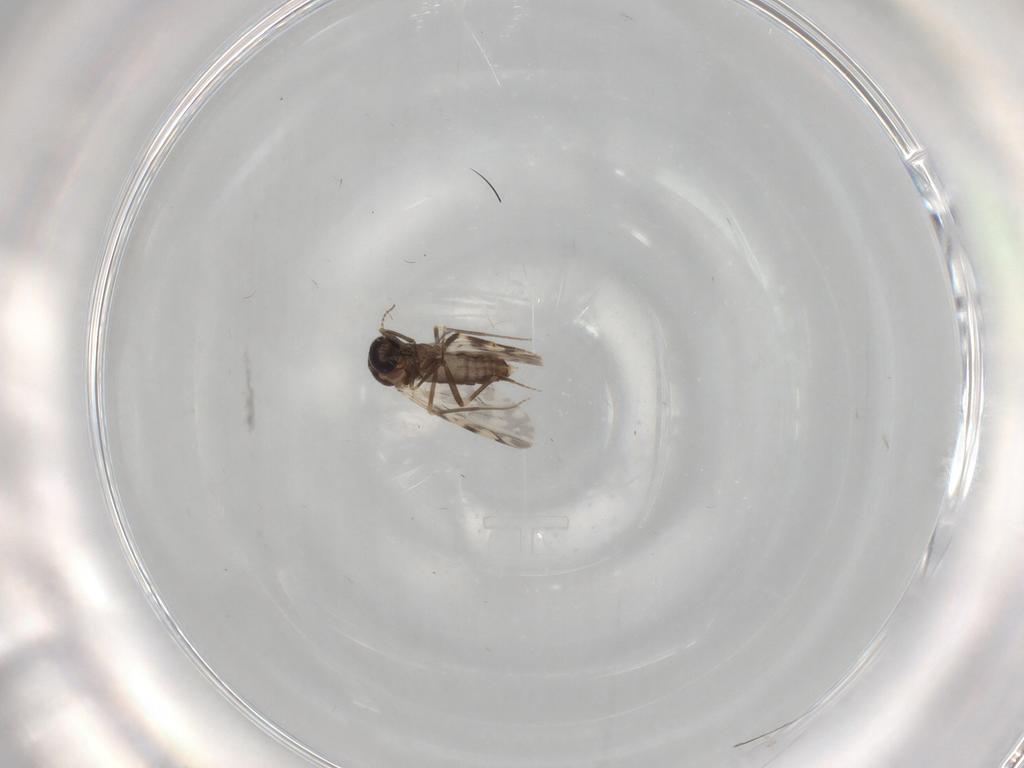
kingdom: Animalia
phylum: Arthropoda
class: Insecta
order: Diptera
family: Ceratopogonidae
